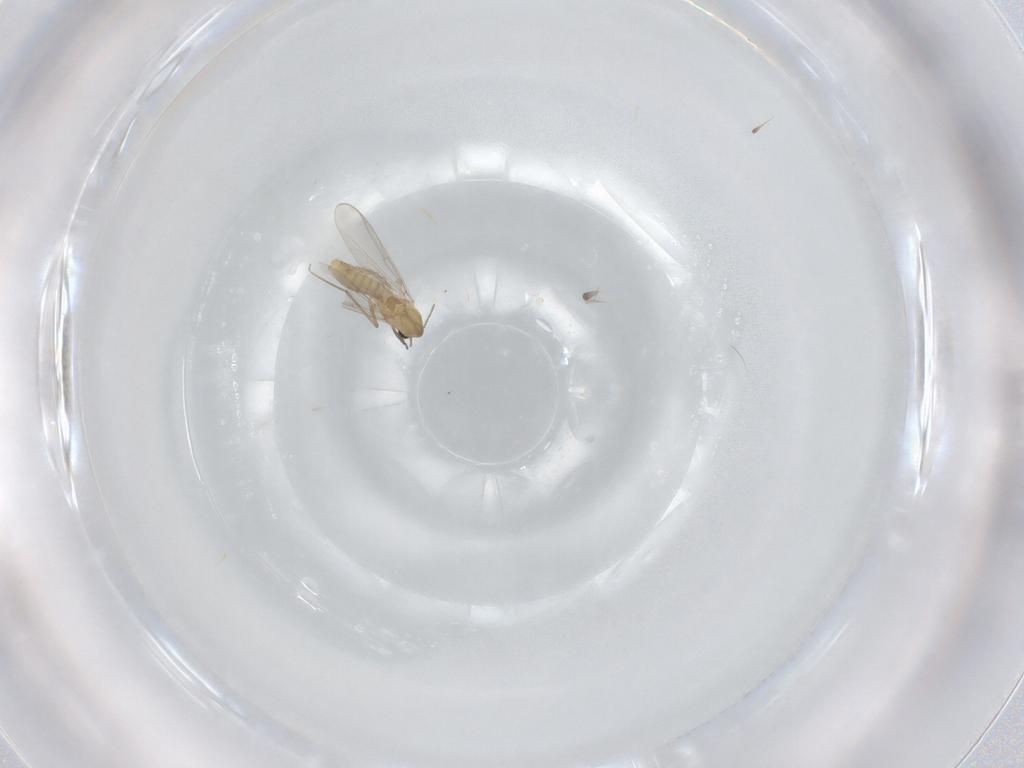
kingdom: Animalia
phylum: Arthropoda
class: Insecta
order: Diptera
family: Chironomidae
